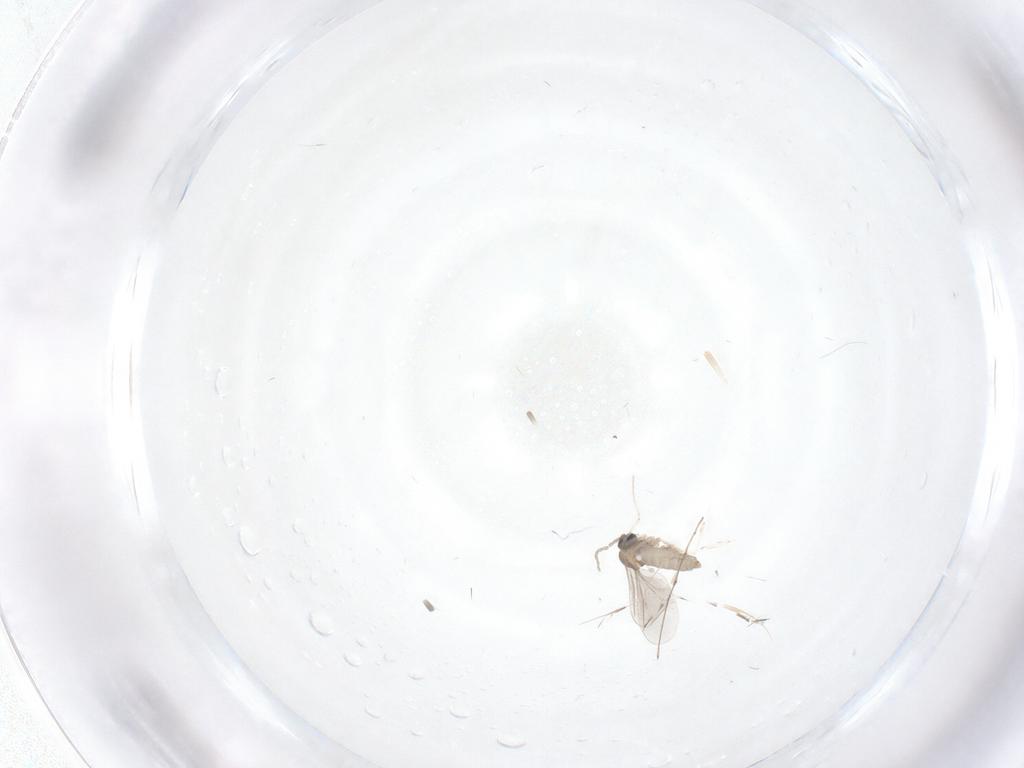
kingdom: Animalia
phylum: Arthropoda
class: Insecta
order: Diptera
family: Cecidomyiidae
